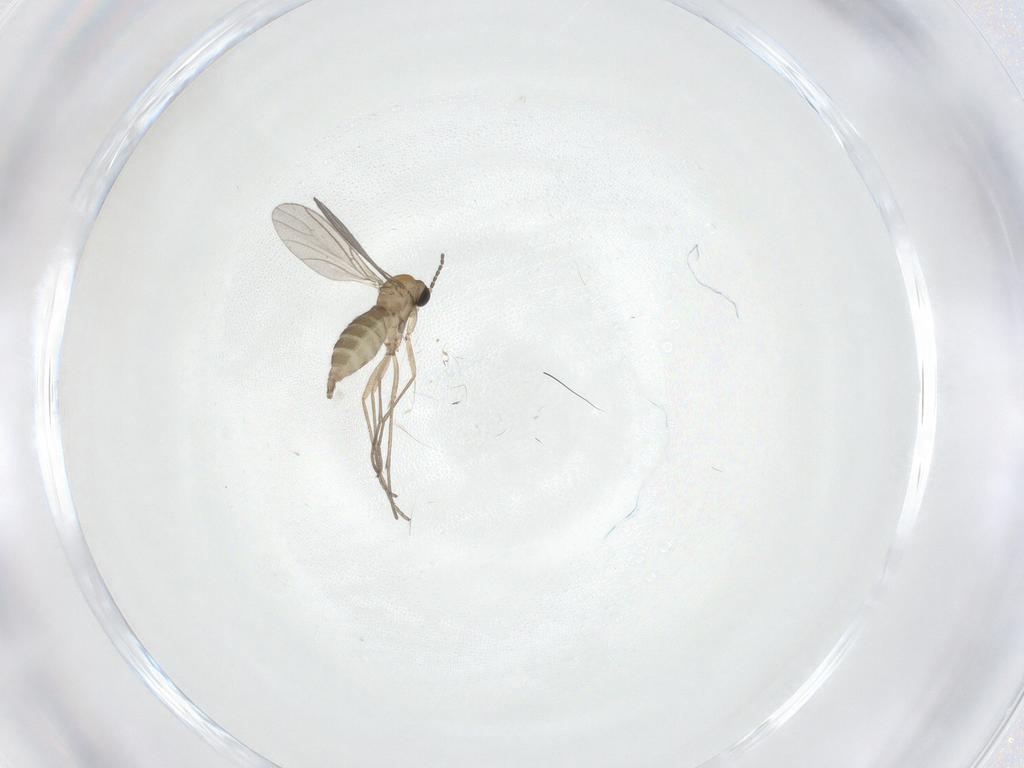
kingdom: Animalia
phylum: Arthropoda
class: Insecta
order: Diptera
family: Sciaridae
